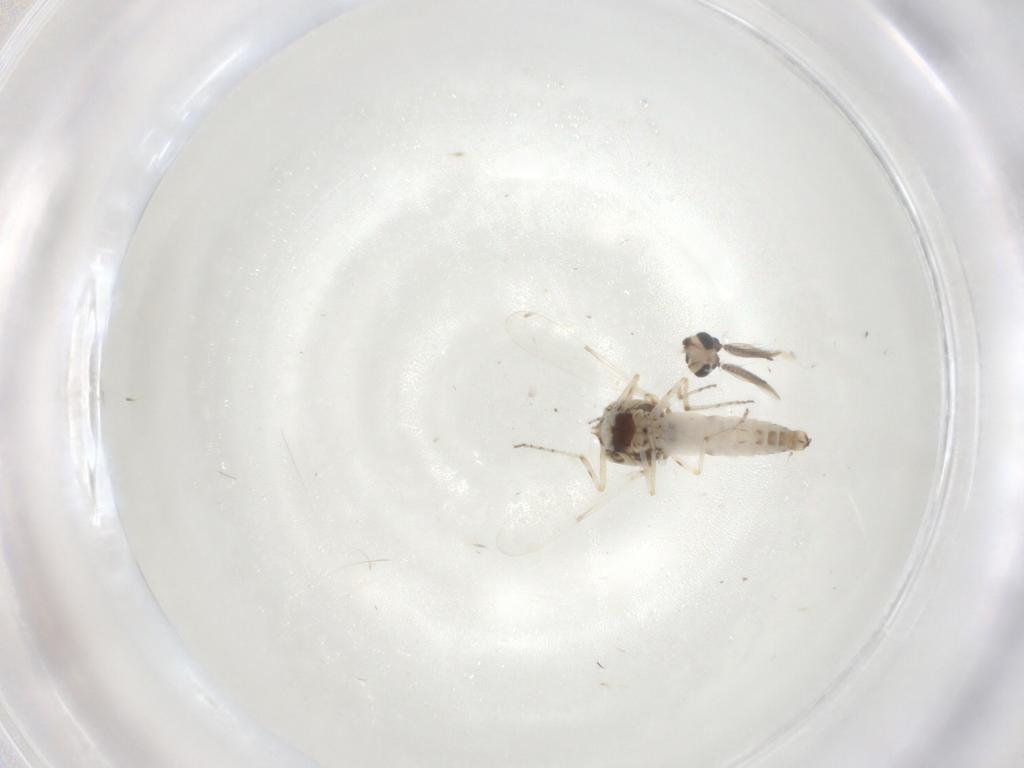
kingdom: Animalia
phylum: Arthropoda
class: Insecta
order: Diptera
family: Ceratopogonidae
